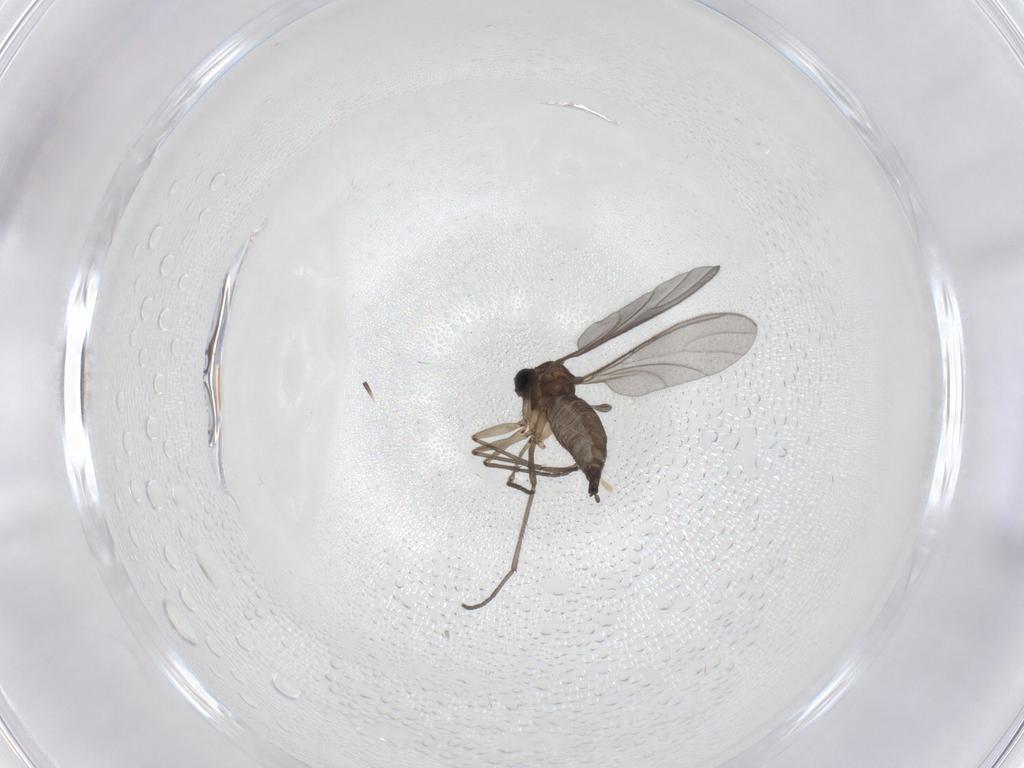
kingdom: Animalia
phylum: Arthropoda
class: Insecta
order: Diptera
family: Sciaridae
